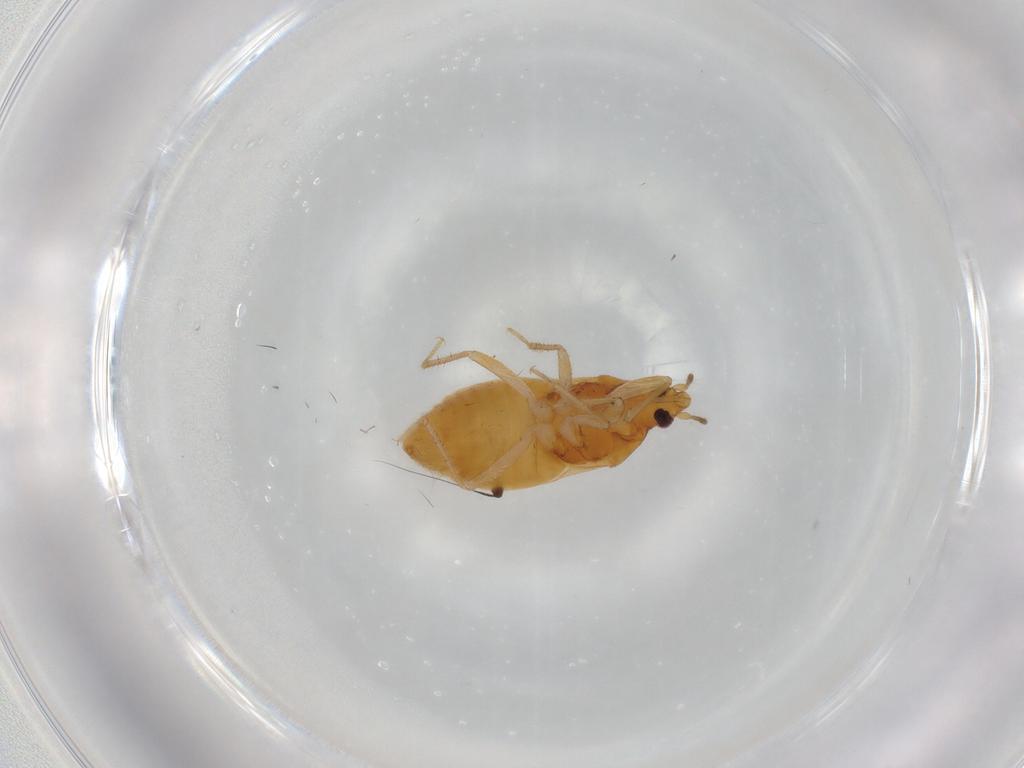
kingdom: Animalia
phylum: Arthropoda
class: Insecta
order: Hemiptera
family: Lasiochilidae
